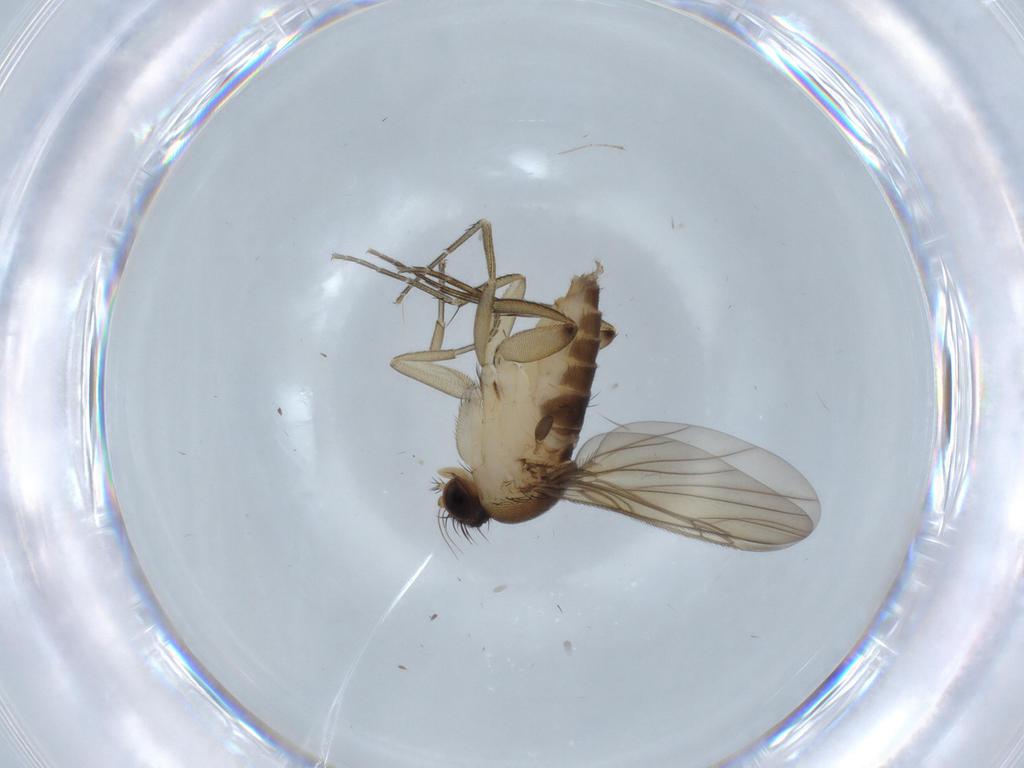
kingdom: Animalia
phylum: Arthropoda
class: Insecta
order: Diptera
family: Phoridae
